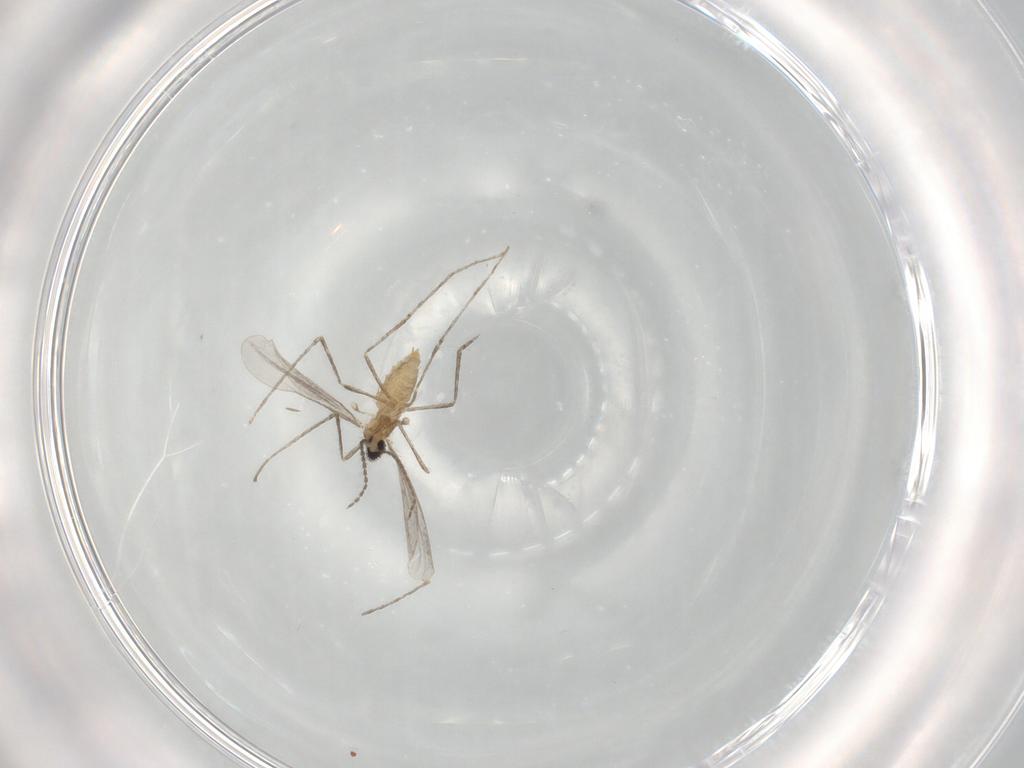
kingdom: Animalia
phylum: Arthropoda
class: Insecta
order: Diptera
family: Cecidomyiidae
